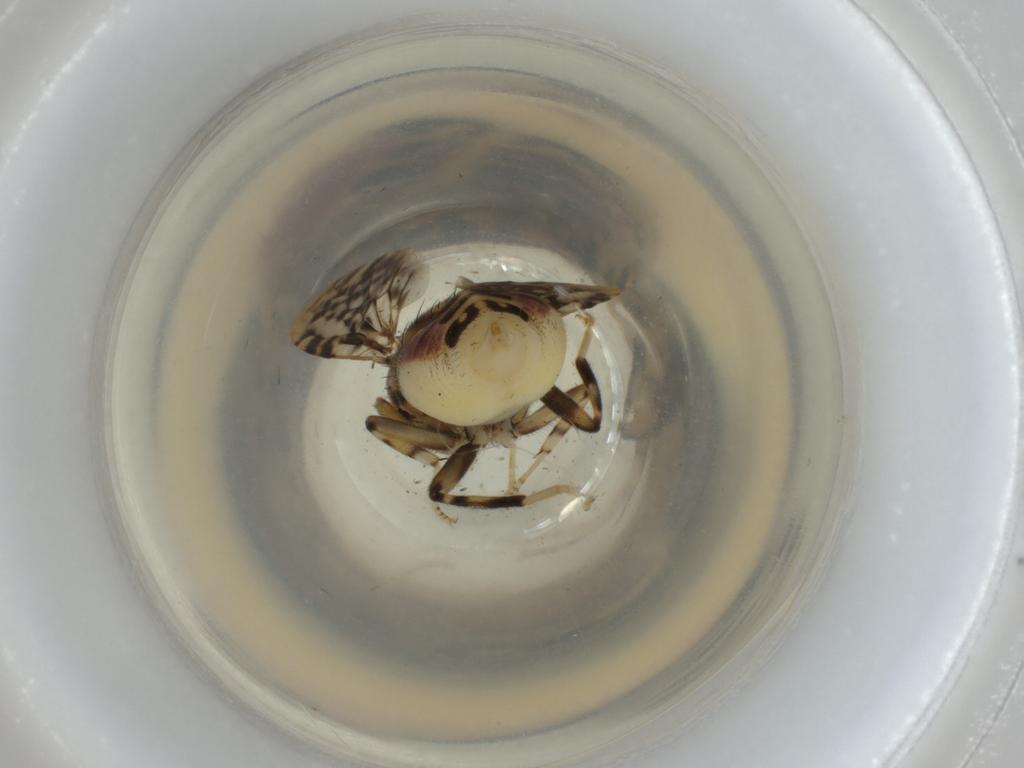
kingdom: Animalia
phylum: Arthropoda
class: Insecta
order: Diptera
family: Platystomatidae
